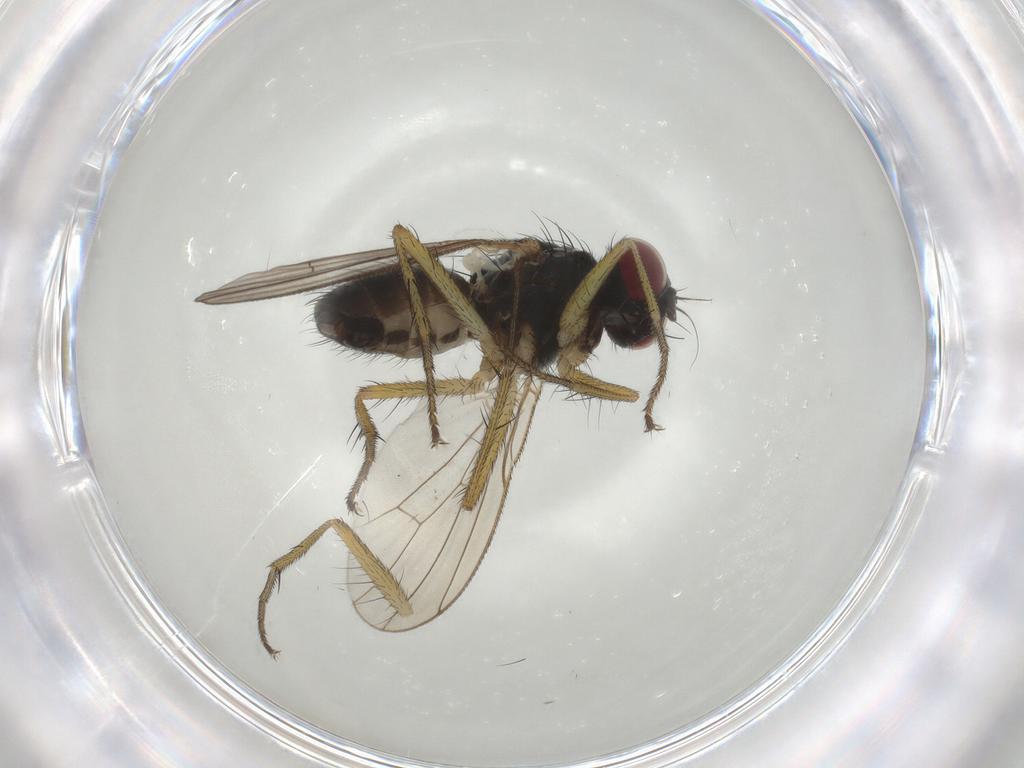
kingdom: Animalia
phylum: Arthropoda
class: Insecta
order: Diptera
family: Muscidae
